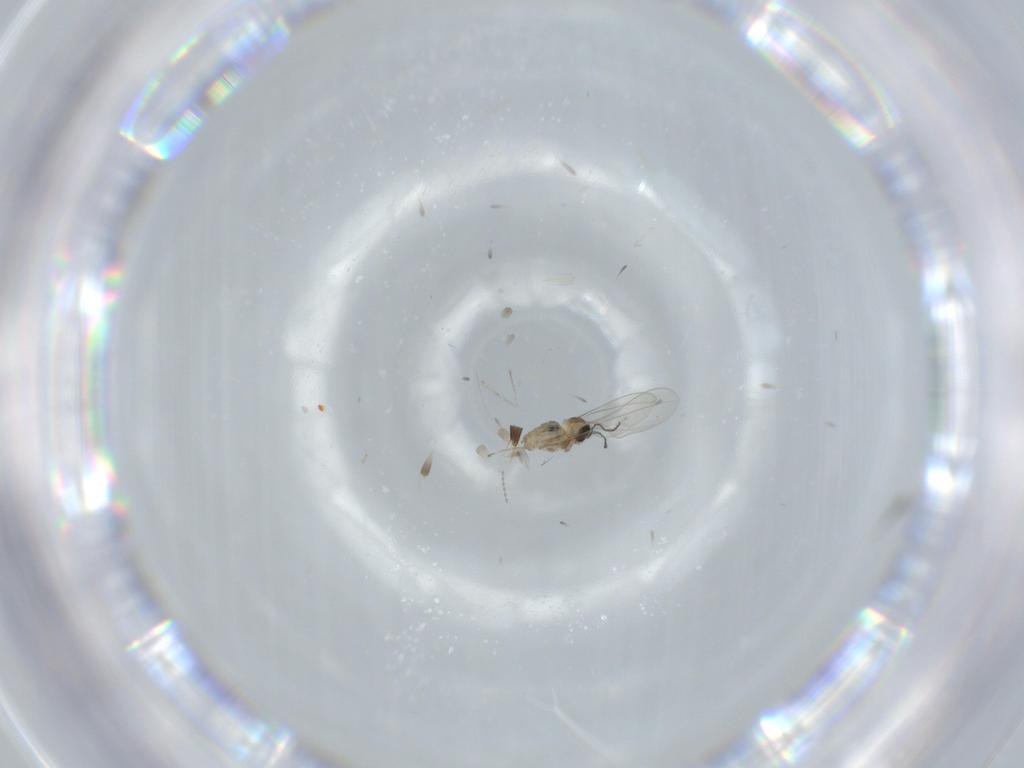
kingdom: Animalia
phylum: Arthropoda
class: Insecta
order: Diptera
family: Cecidomyiidae
